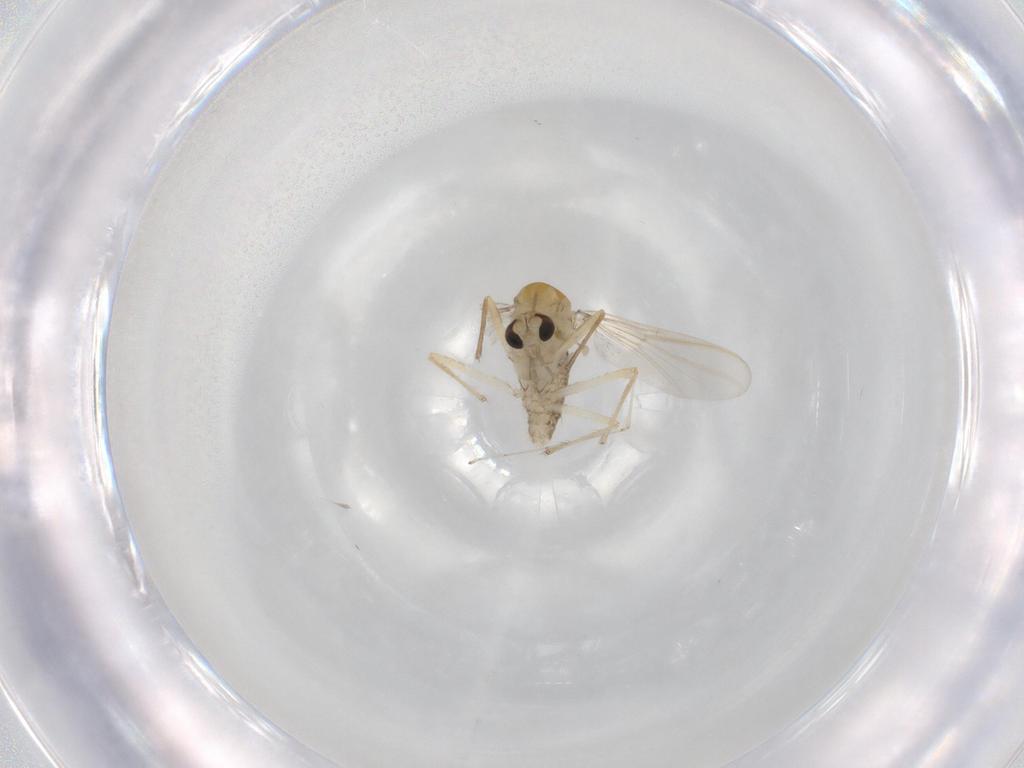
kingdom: Animalia
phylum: Arthropoda
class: Insecta
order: Diptera
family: Chironomidae
